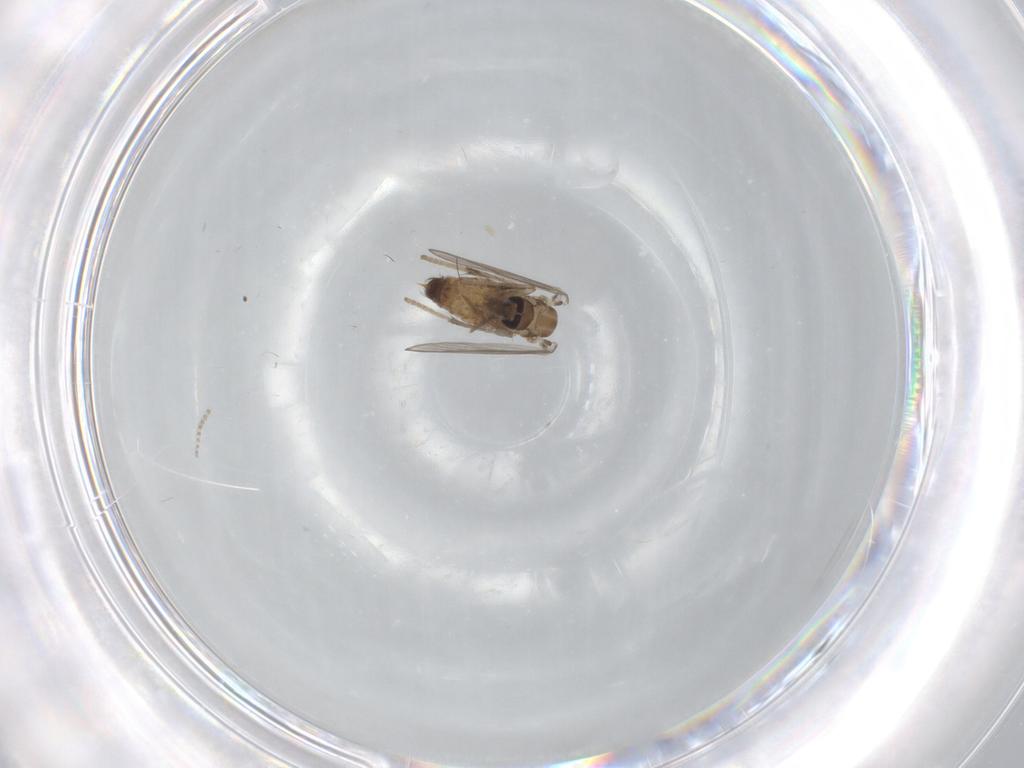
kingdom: Animalia
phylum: Arthropoda
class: Insecta
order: Diptera
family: Psychodidae
